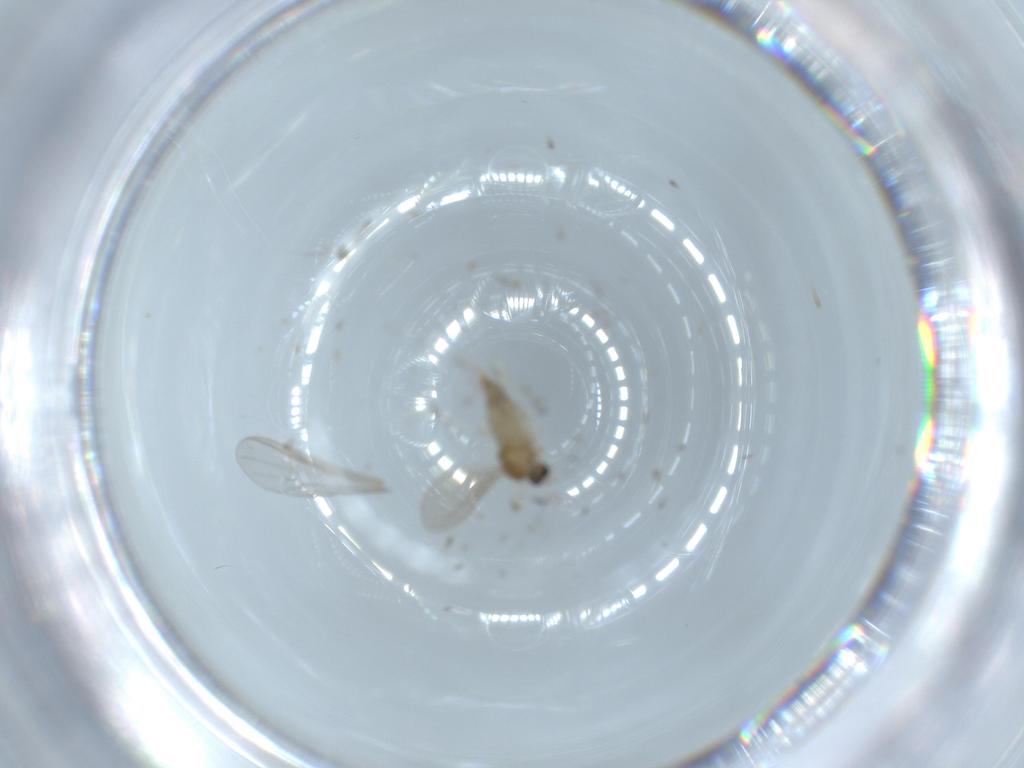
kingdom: Animalia
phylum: Arthropoda
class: Insecta
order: Diptera
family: Cecidomyiidae
